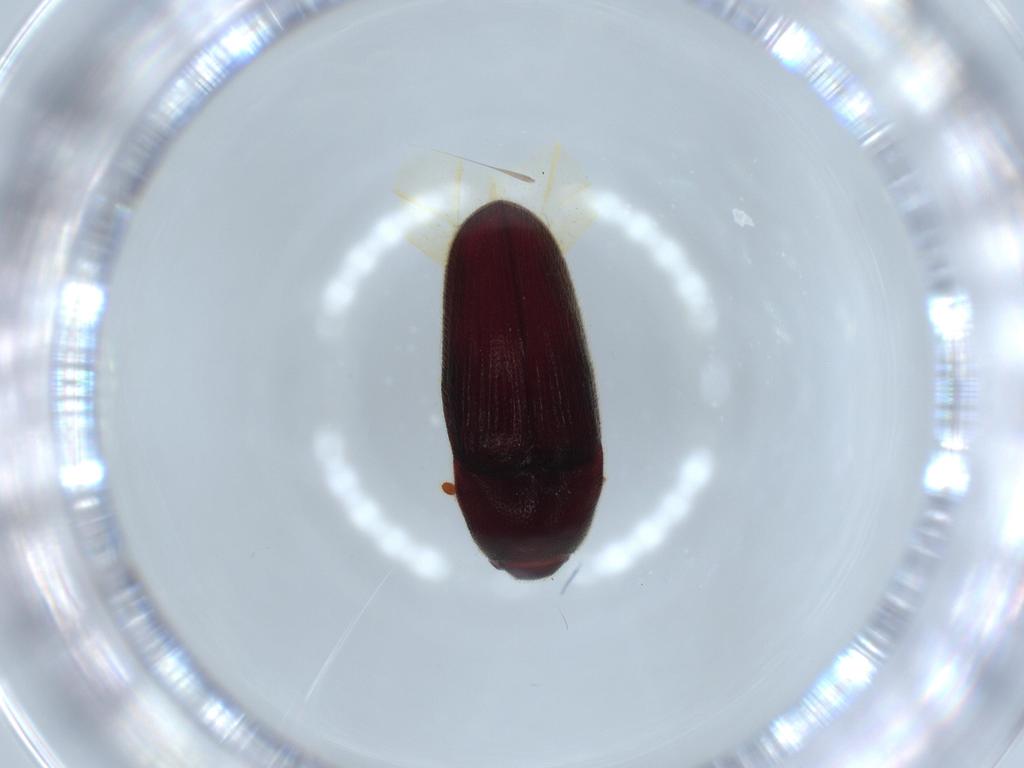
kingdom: Animalia
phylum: Arthropoda
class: Insecta
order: Coleoptera
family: Throscidae
